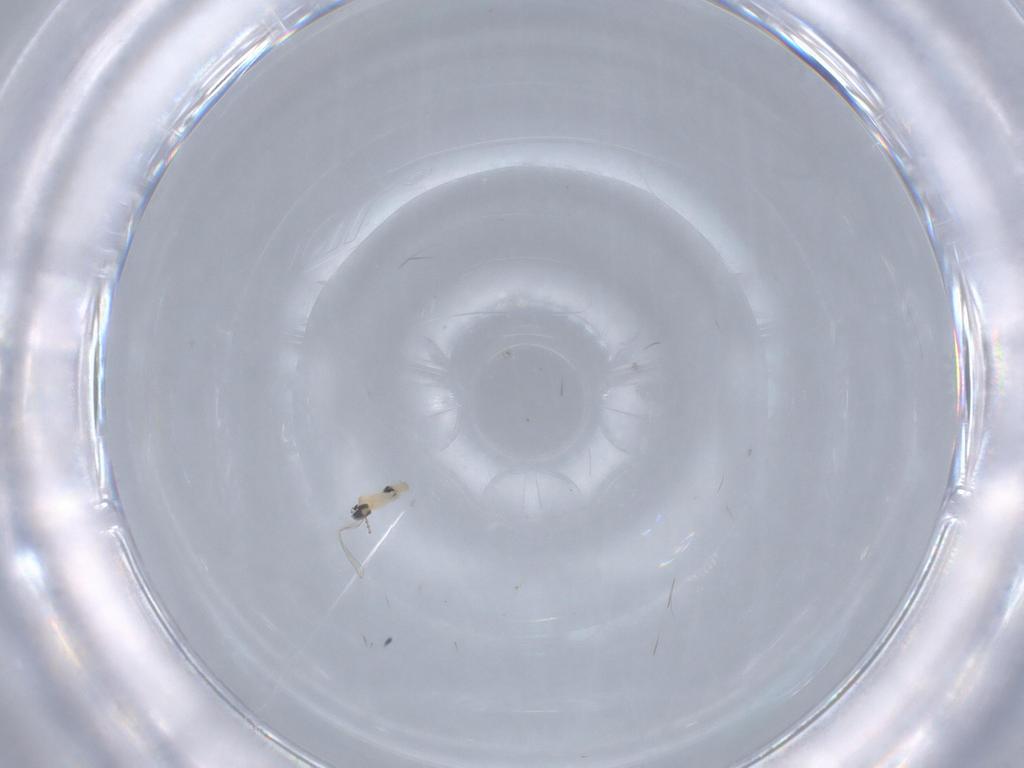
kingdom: Animalia
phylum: Arthropoda
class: Insecta
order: Diptera
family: Cecidomyiidae
